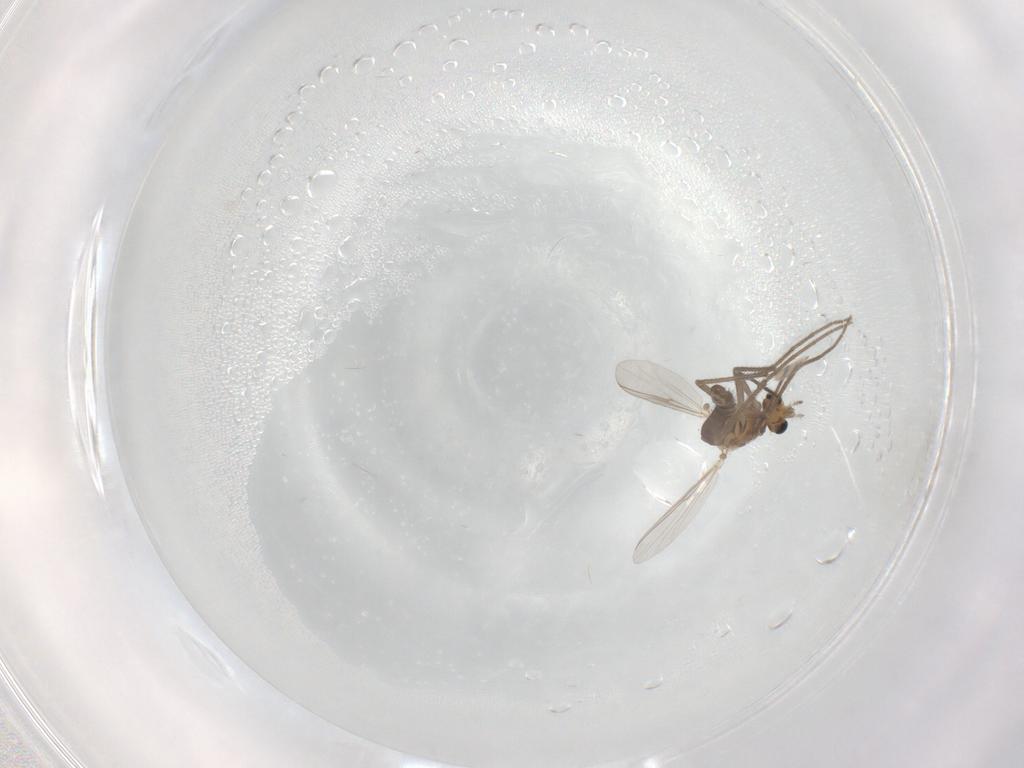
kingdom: Animalia
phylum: Arthropoda
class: Insecta
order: Diptera
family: Chironomidae
